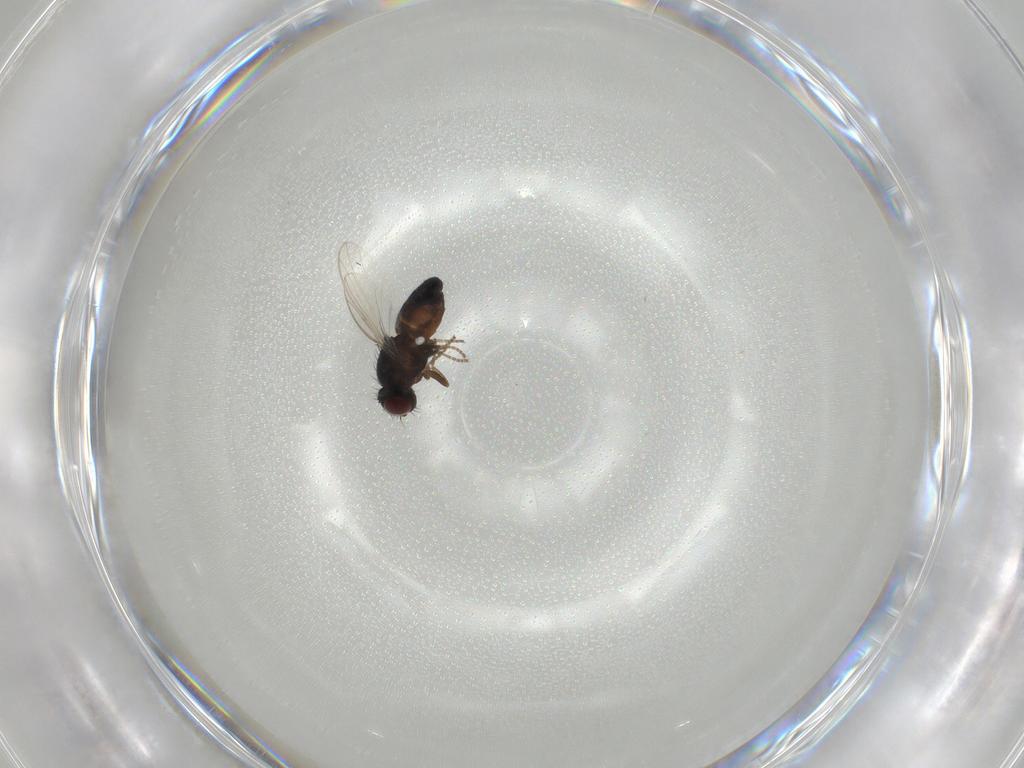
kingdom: Animalia
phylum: Arthropoda
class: Insecta
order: Diptera
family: Carnidae
